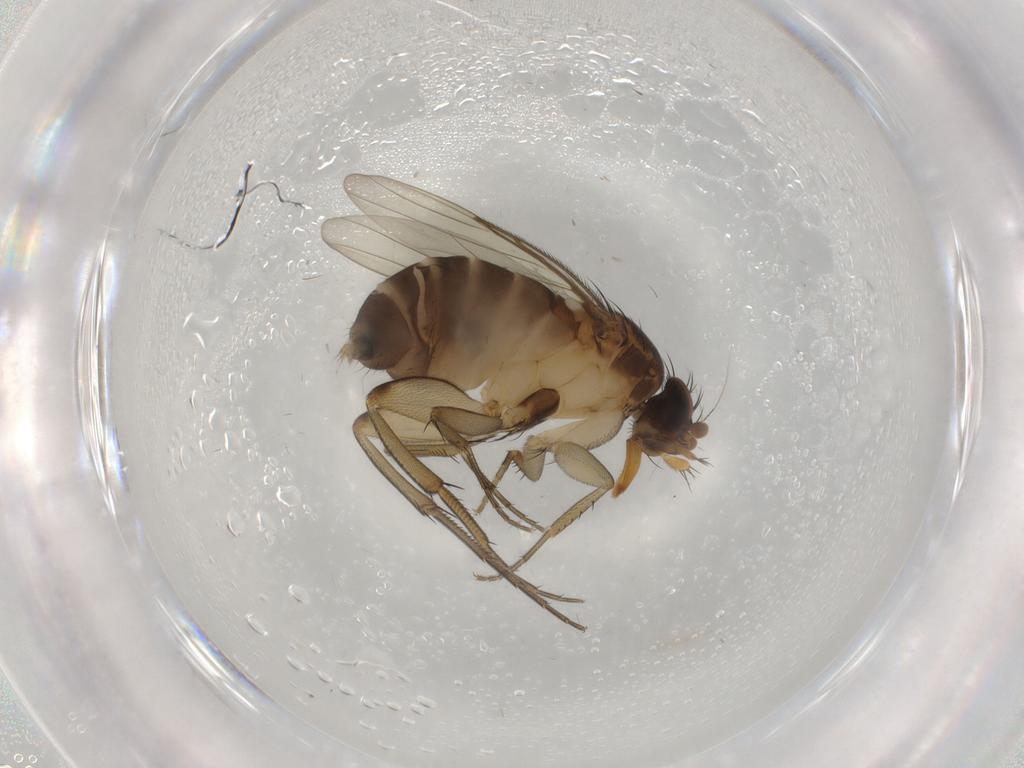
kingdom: Animalia
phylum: Arthropoda
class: Insecta
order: Diptera
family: Phoridae
